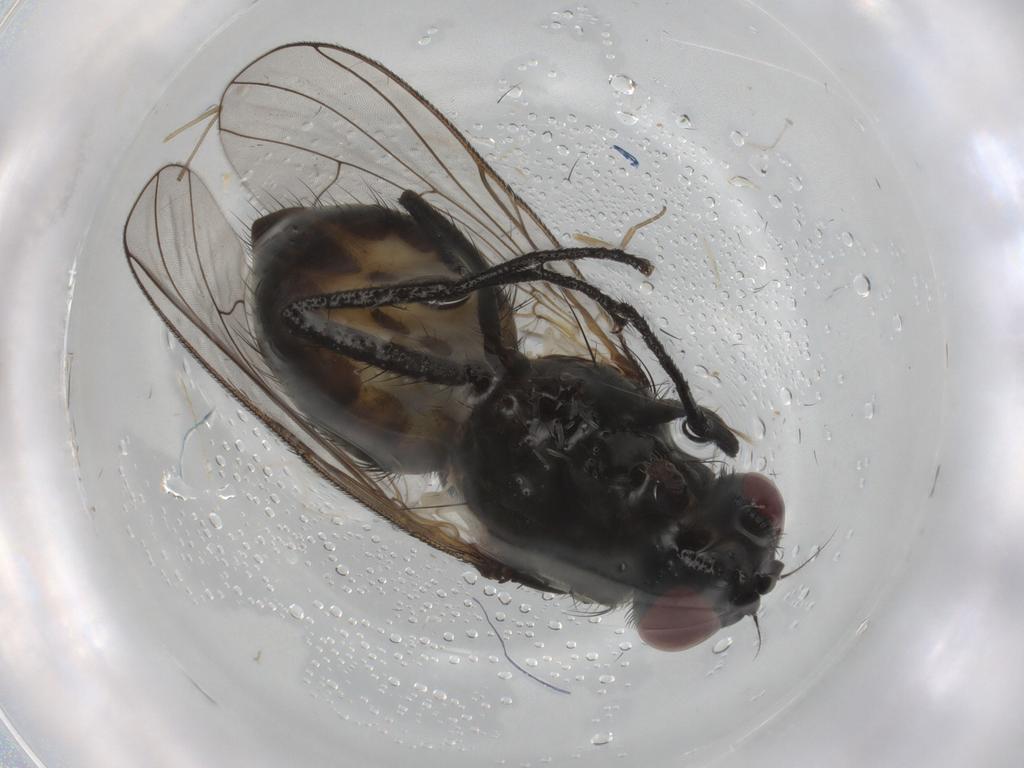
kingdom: Animalia
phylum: Arthropoda
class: Insecta
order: Diptera
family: Phoridae
